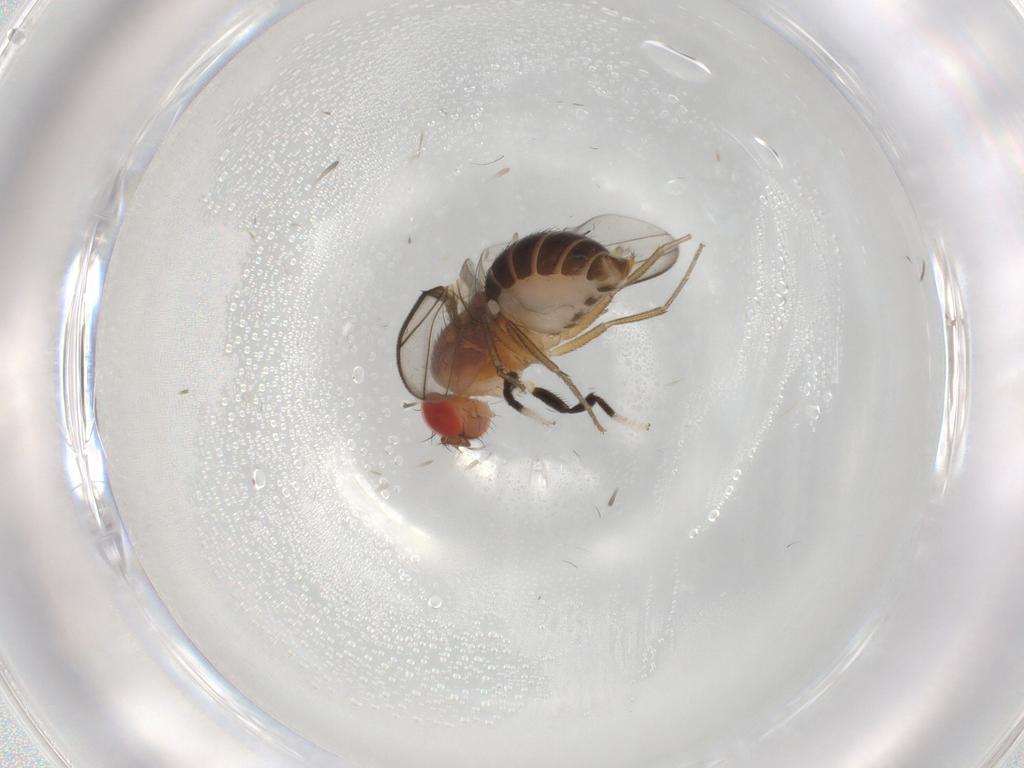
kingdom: Animalia
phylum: Arthropoda
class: Insecta
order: Diptera
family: Drosophilidae
